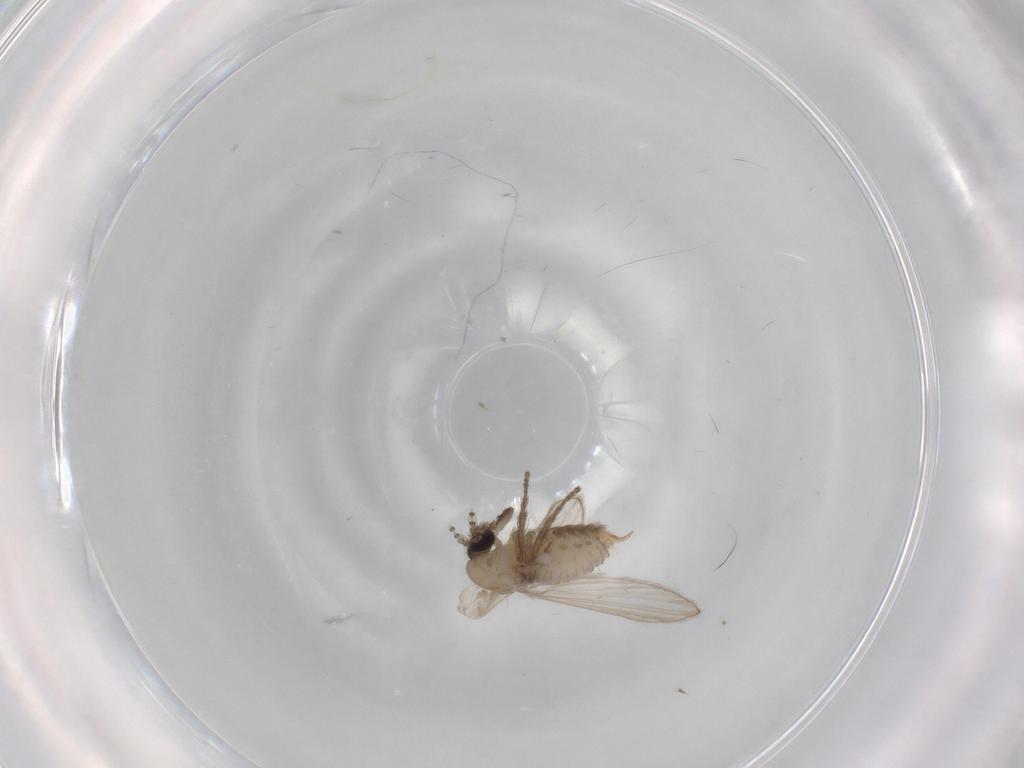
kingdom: Animalia
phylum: Arthropoda
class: Insecta
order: Diptera
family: Psychodidae
